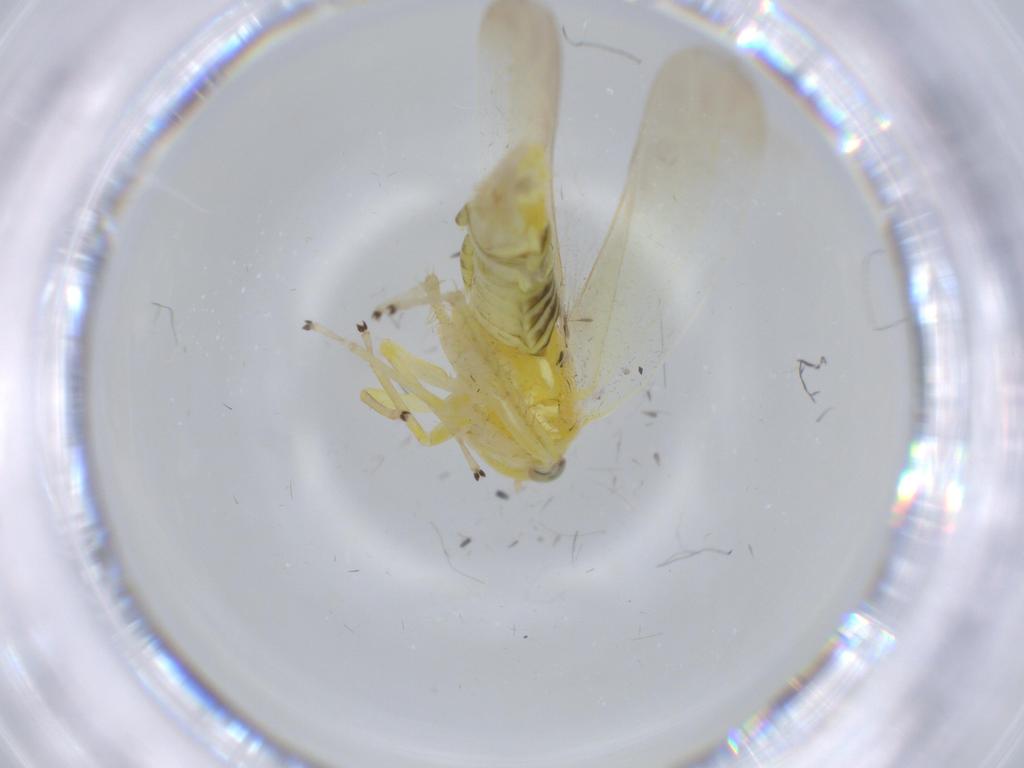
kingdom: Animalia
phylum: Arthropoda
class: Insecta
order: Hemiptera
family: Cicadellidae
